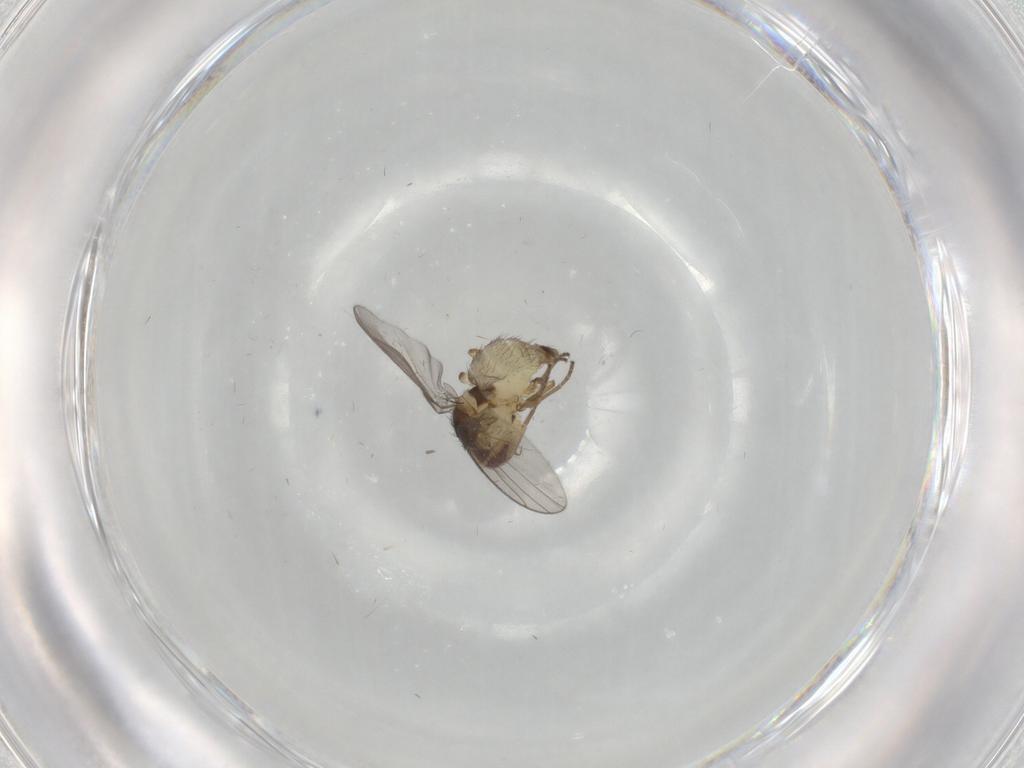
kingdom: Animalia
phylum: Arthropoda
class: Insecta
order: Diptera
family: Agromyzidae
